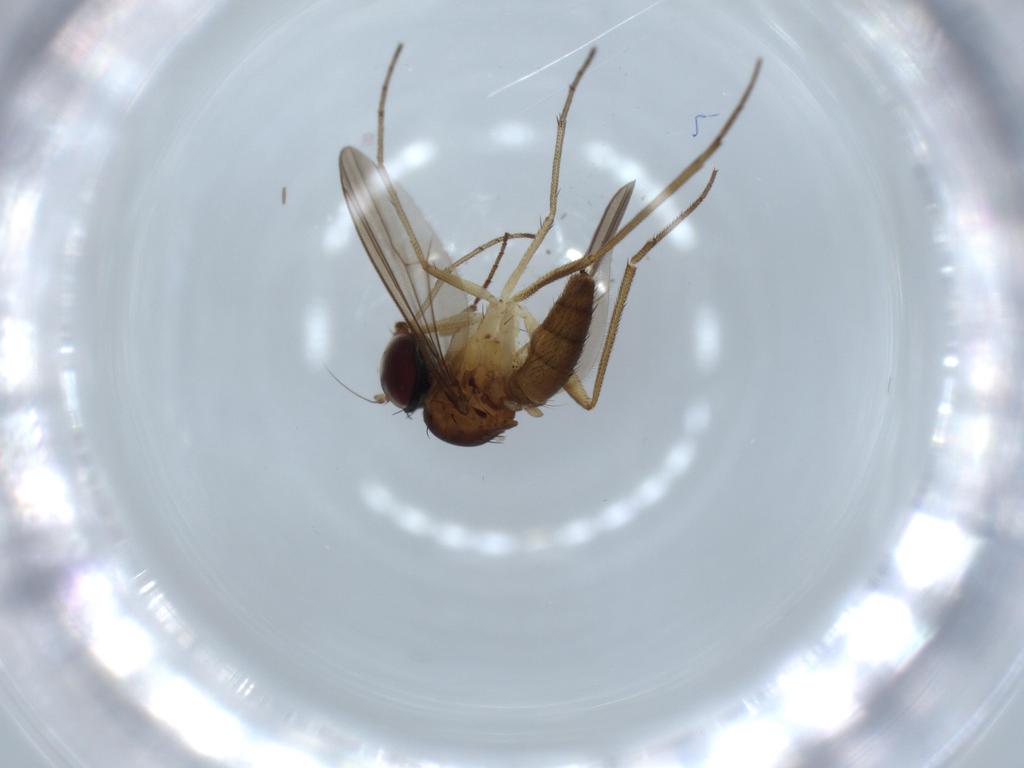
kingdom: Animalia
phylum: Arthropoda
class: Insecta
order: Diptera
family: Dolichopodidae
